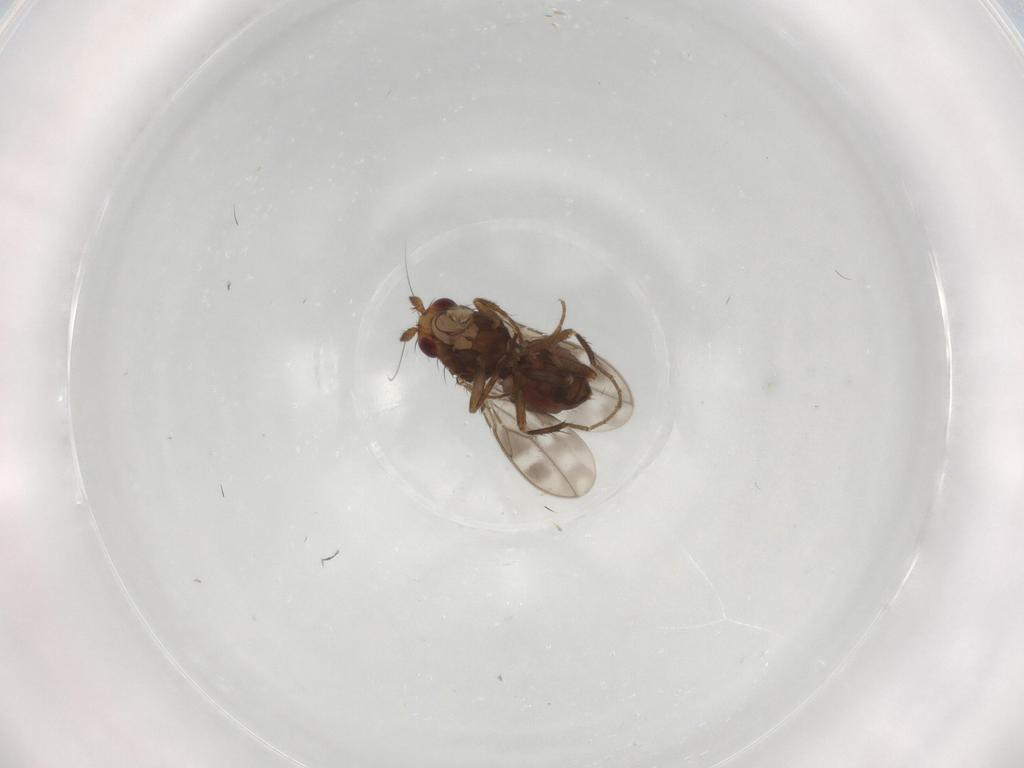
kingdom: Animalia
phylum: Arthropoda
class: Insecta
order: Diptera
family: Sphaeroceridae
